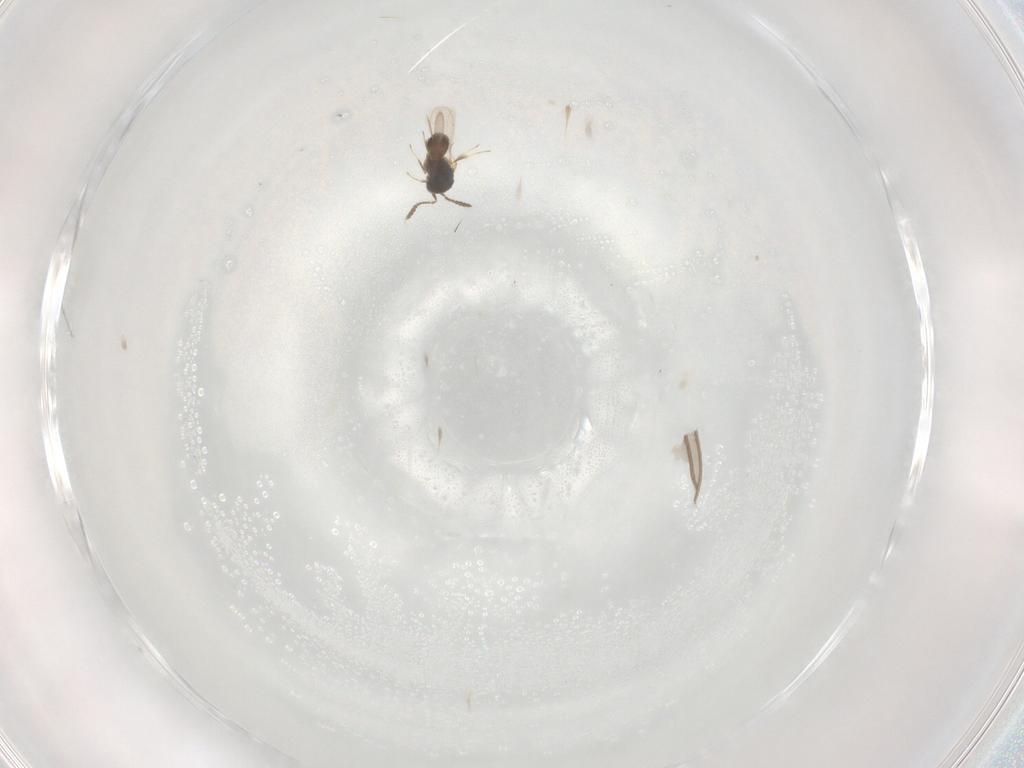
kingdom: Animalia
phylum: Arthropoda
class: Insecta
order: Hymenoptera
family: Scelionidae
